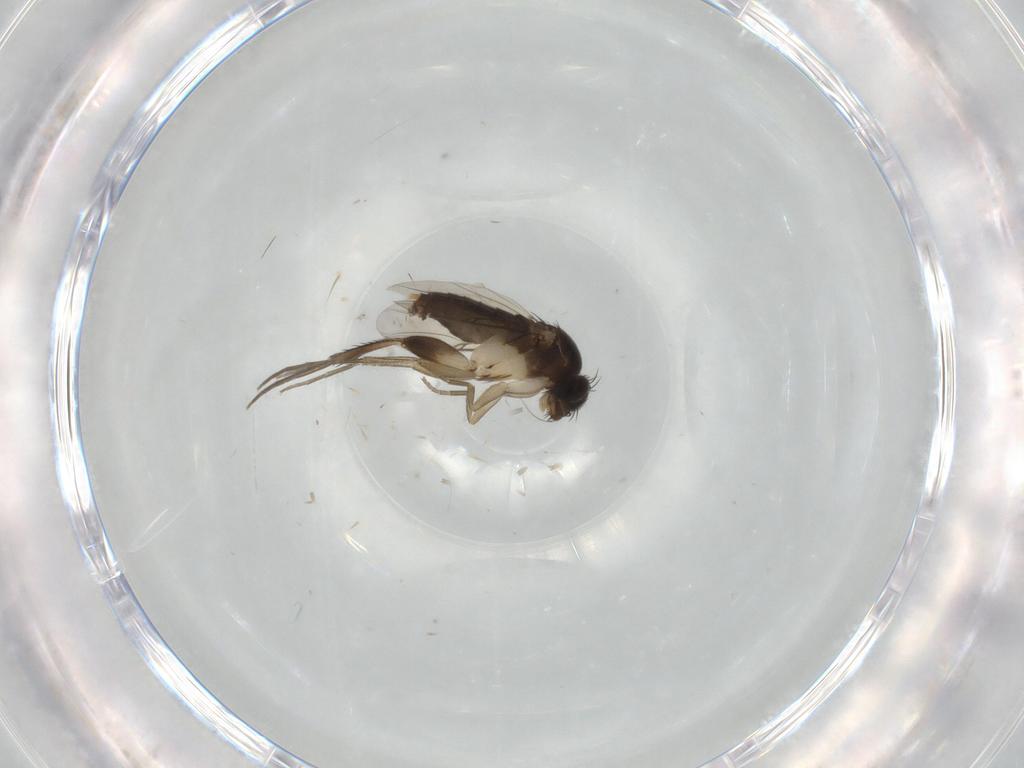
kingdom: Animalia
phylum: Arthropoda
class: Insecta
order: Diptera
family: Phoridae
